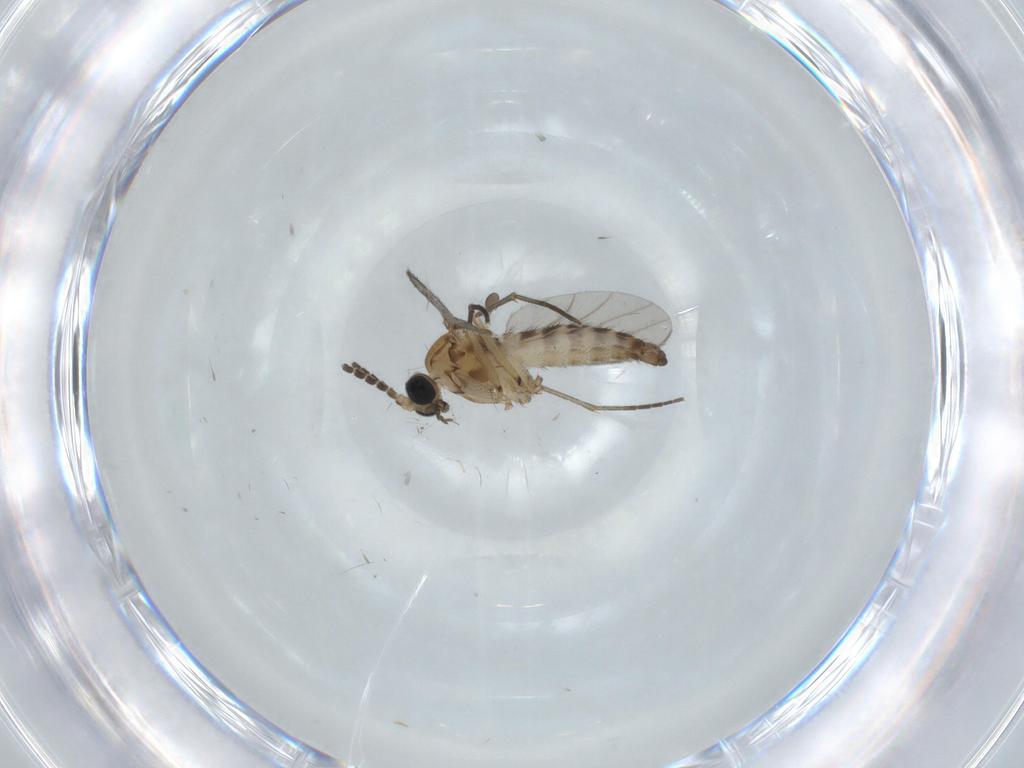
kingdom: Animalia
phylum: Arthropoda
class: Insecta
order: Diptera
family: Sciaridae
